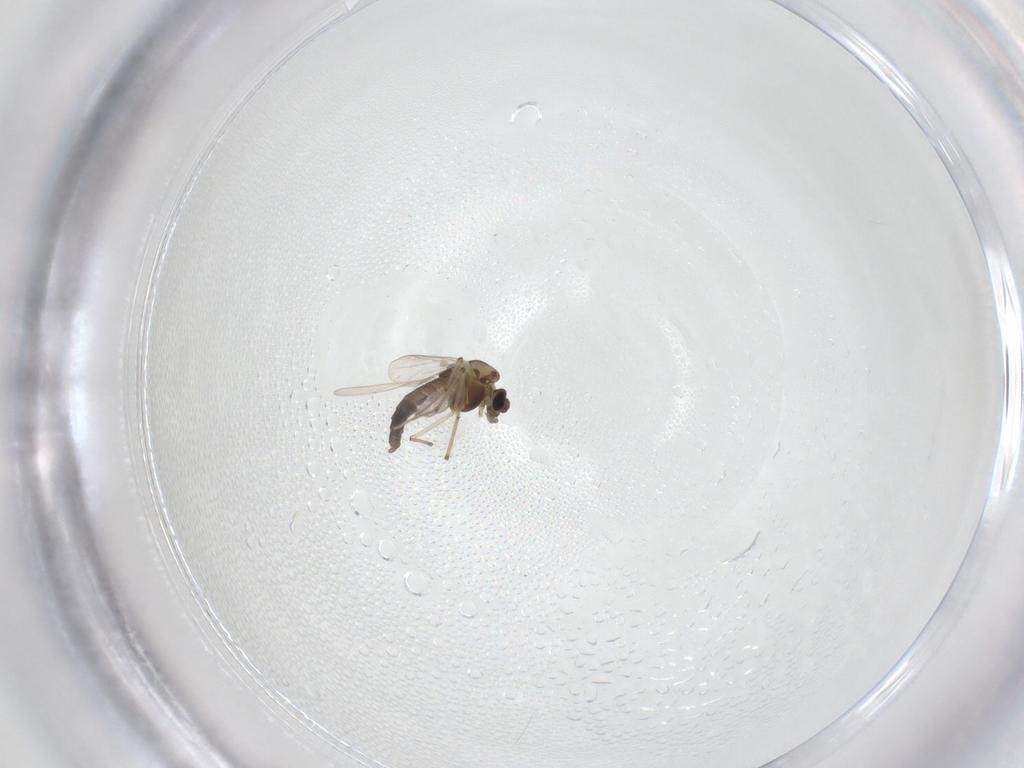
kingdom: Animalia
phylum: Arthropoda
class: Insecta
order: Diptera
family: Chironomidae
